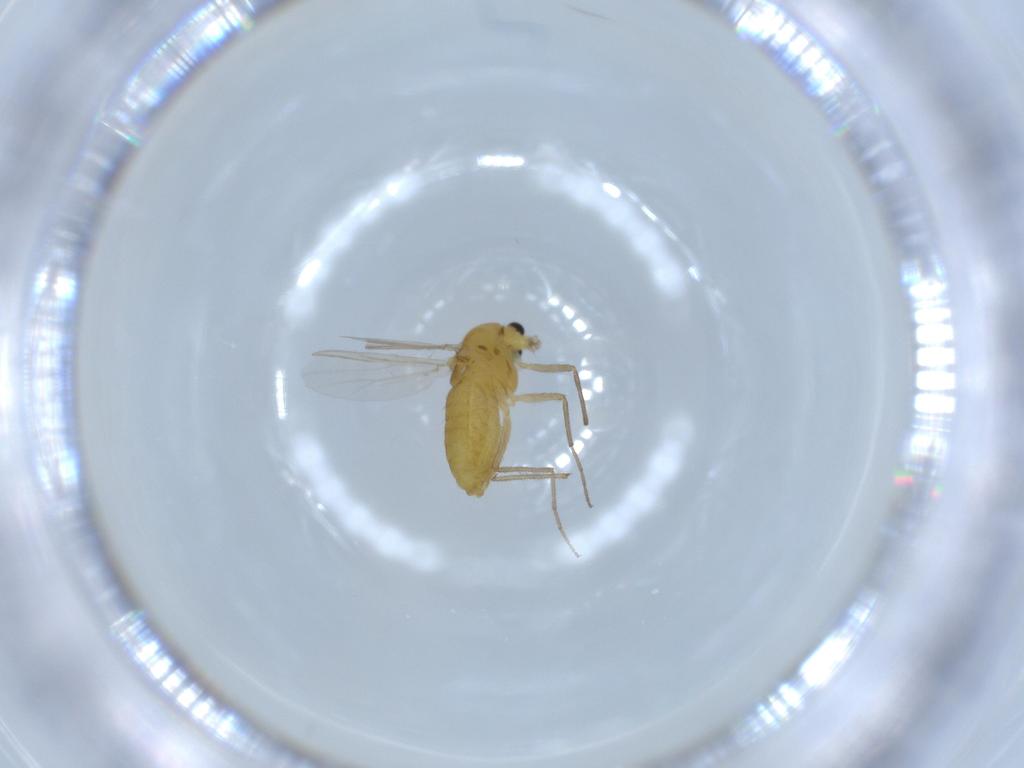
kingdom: Animalia
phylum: Arthropoda
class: Insecta
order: Diptera
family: Chironomidae
